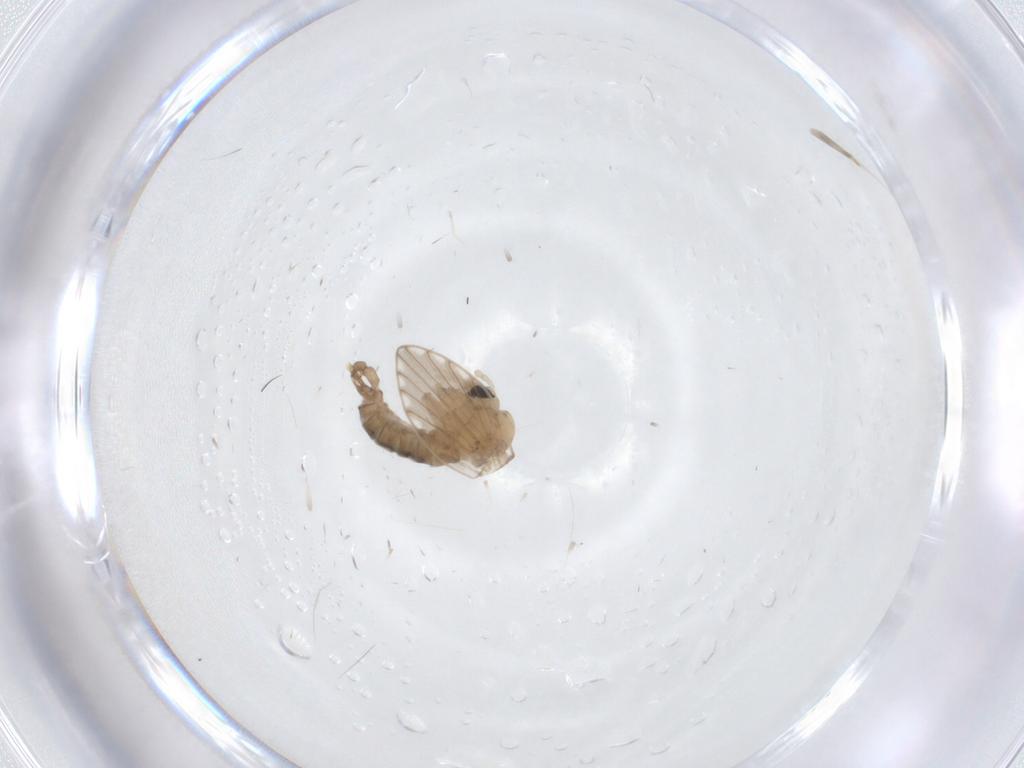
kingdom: Animalia
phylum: Arthropoda
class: Insecta
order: Diptera
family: Psychodidae
